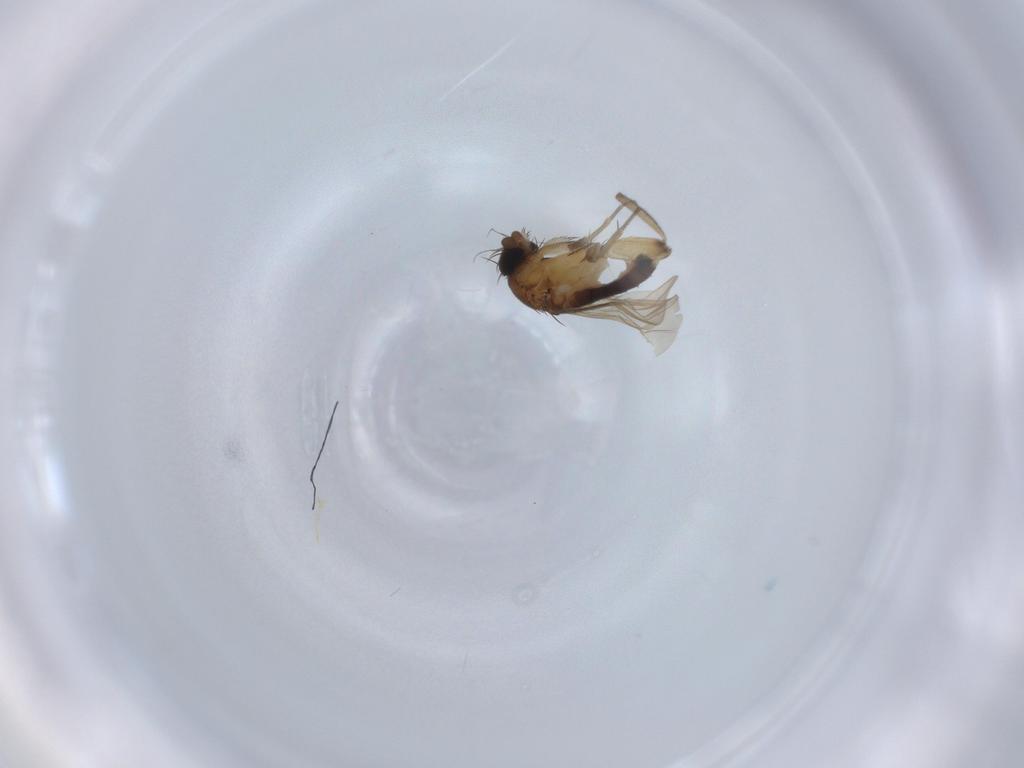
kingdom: Animalia
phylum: Arthropoda
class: Insecta
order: Diptera
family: Phoridae
